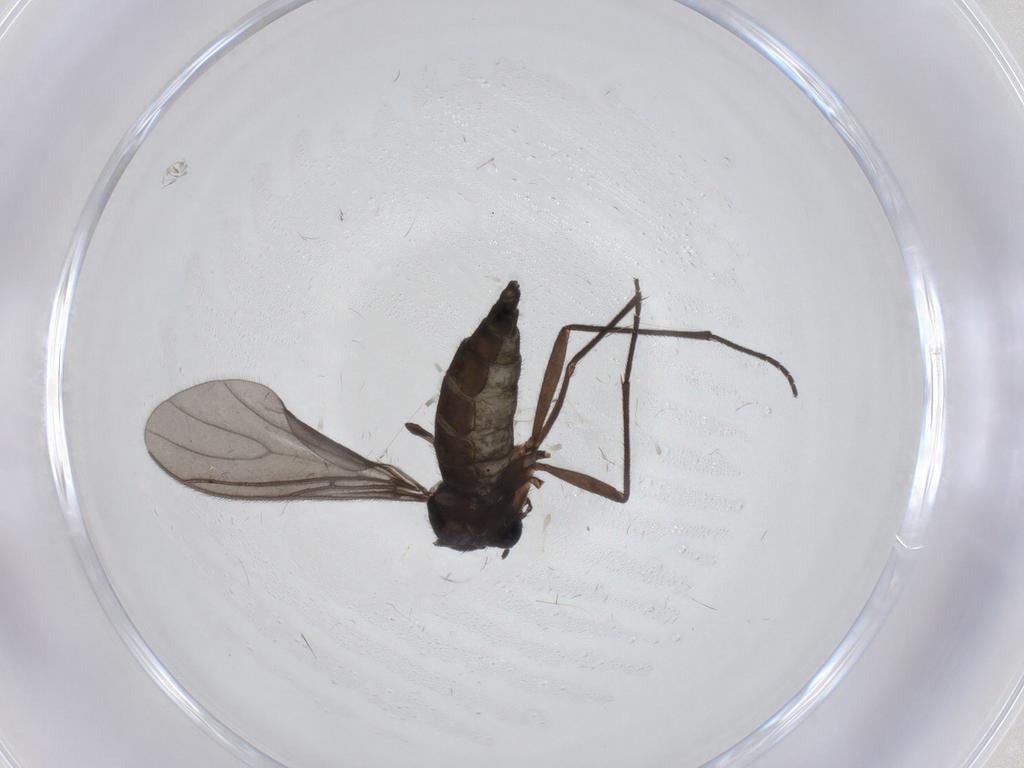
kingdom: Animalia
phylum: Arthropoda
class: Insecta
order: Diptera
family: Sciaridae
